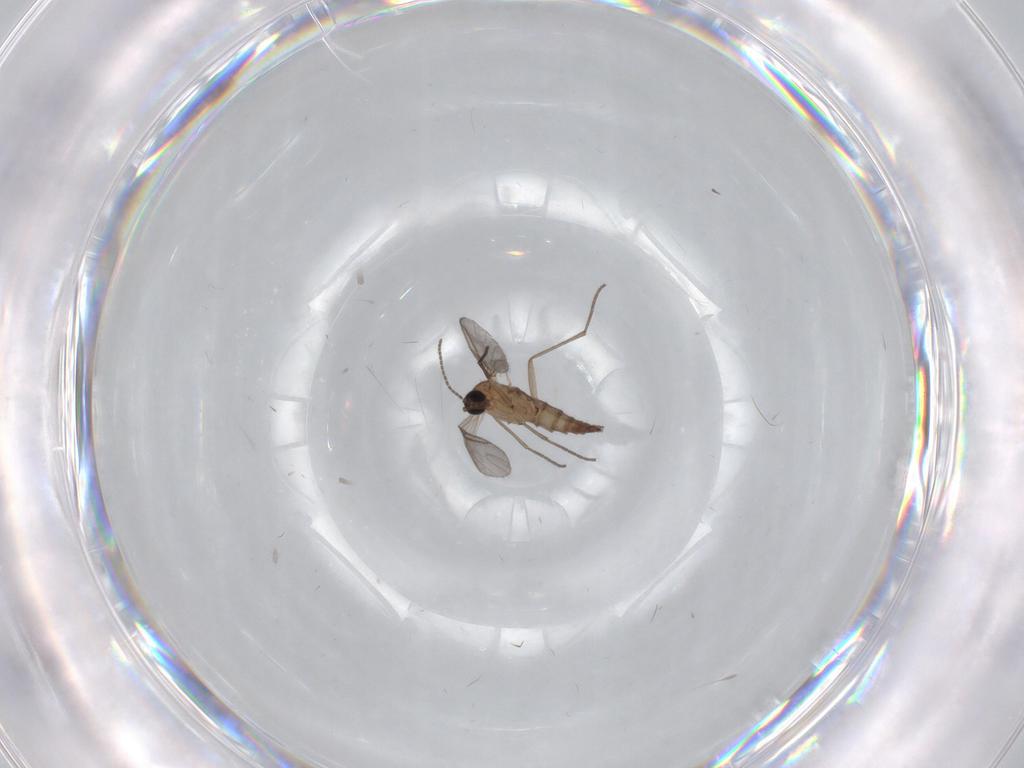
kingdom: Animalia
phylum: Arthropoda
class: Insecta
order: Diptera
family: Sciaridae
